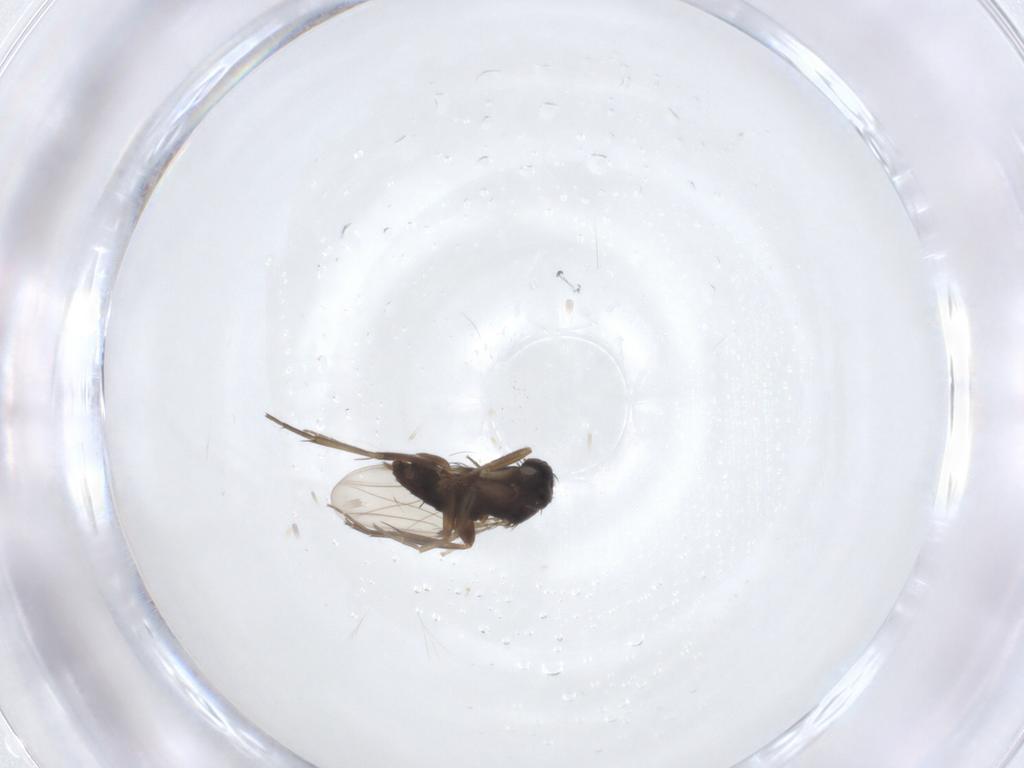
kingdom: Animalia
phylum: Arthropoda
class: Insecta
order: Diptera
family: Phoridae
